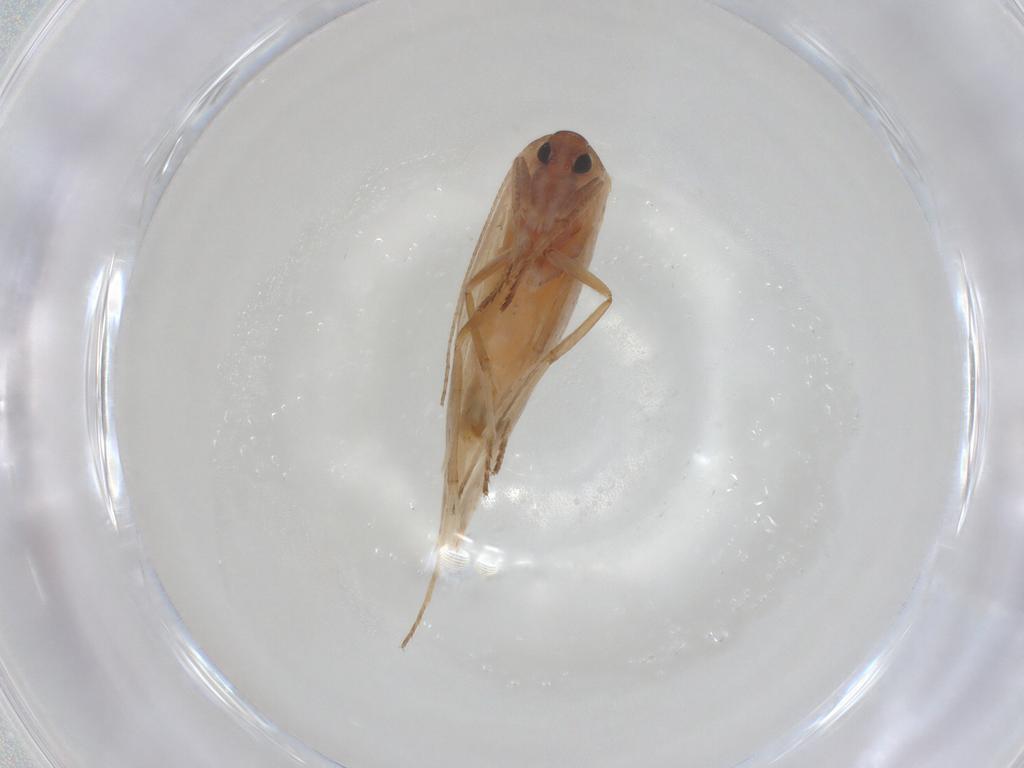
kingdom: Animalia
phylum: Arthropoda
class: Insecta
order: Lepidoptera
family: Gelechiidae
